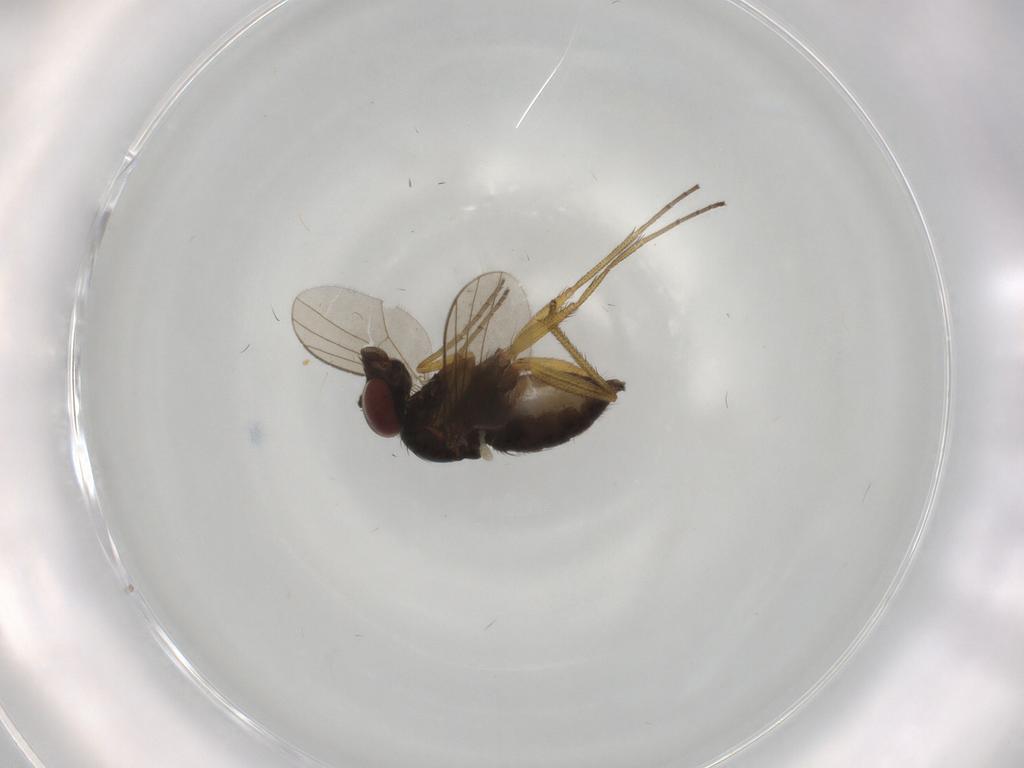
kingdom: Animalia
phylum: Arthropoda
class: Insecta
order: Diptera
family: Dolichopodidae
